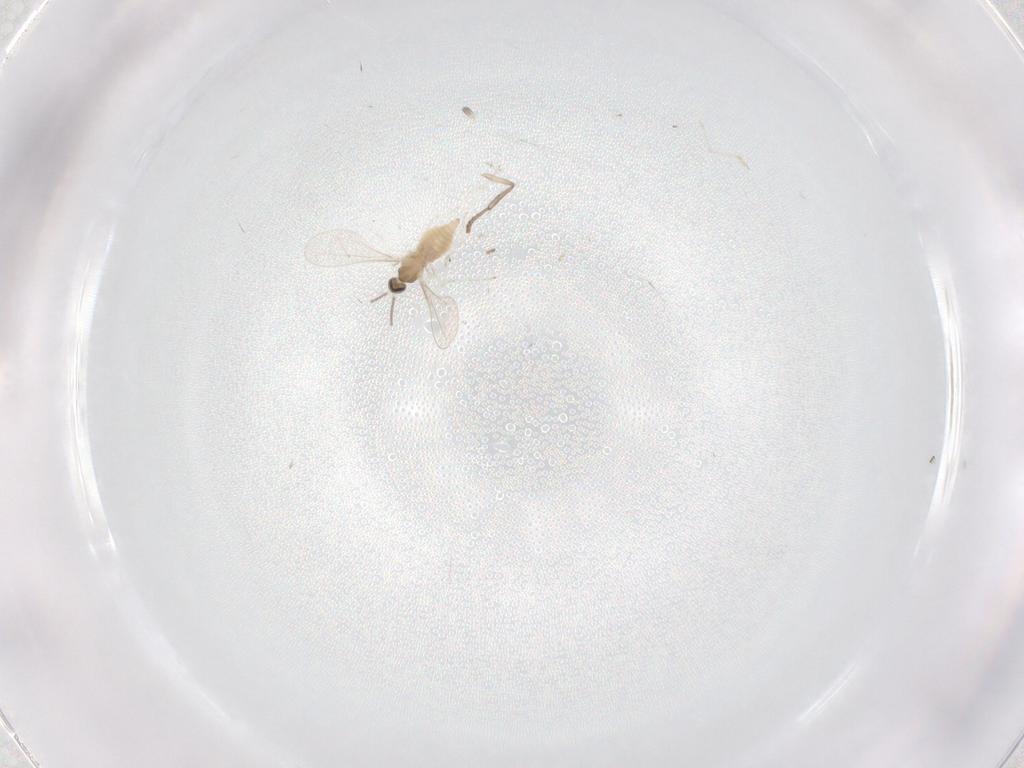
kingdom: Animalia
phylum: Arthropoda
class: Insecta
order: Diptera
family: Cecidomyiidae
